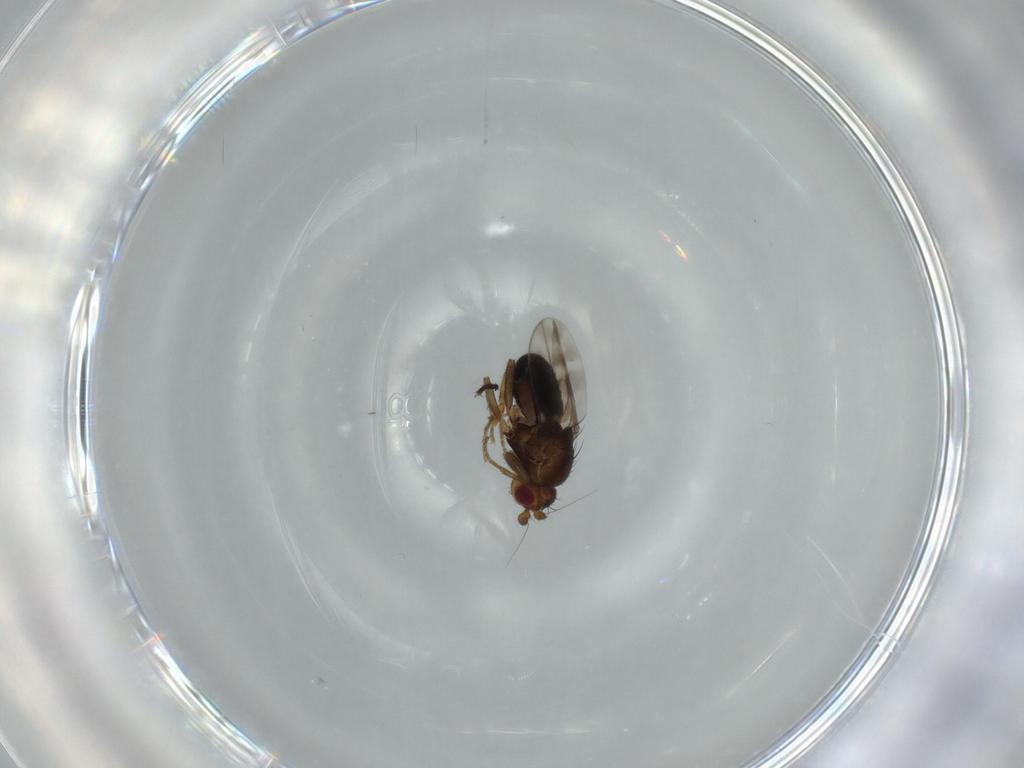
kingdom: Animalia
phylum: Arthropoda
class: Insecta
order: Diptera
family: Sphaeroceridae
